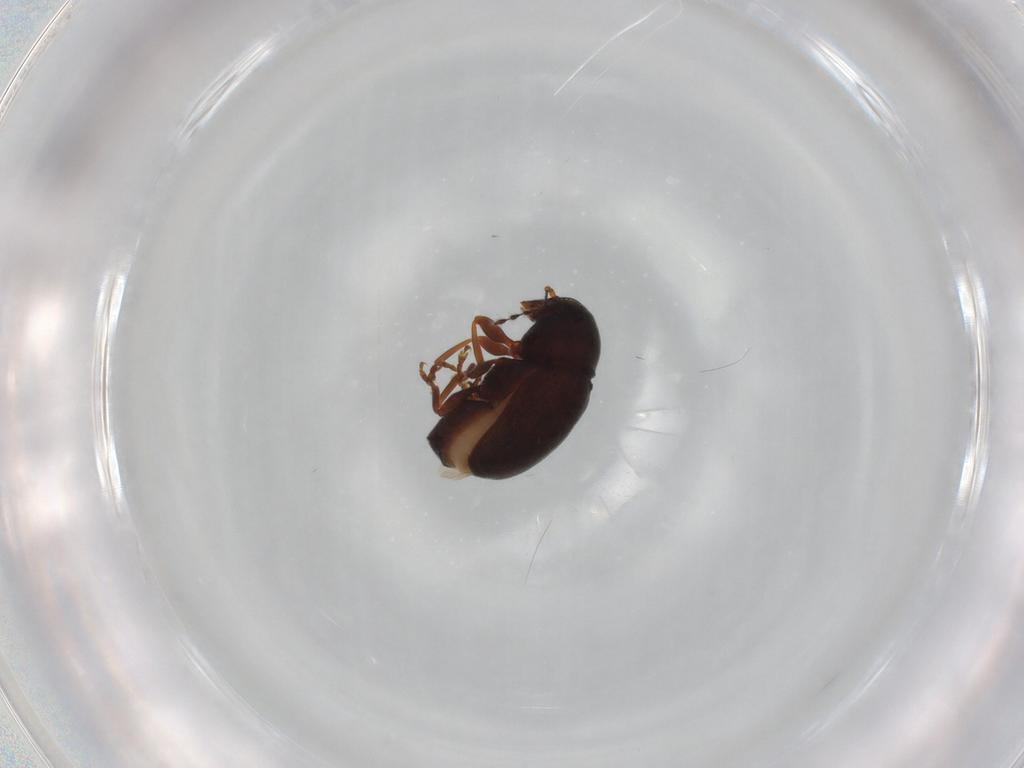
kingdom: Animalia
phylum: Arthropoda
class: Insecta
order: Coleoptera
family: Anthribidae
